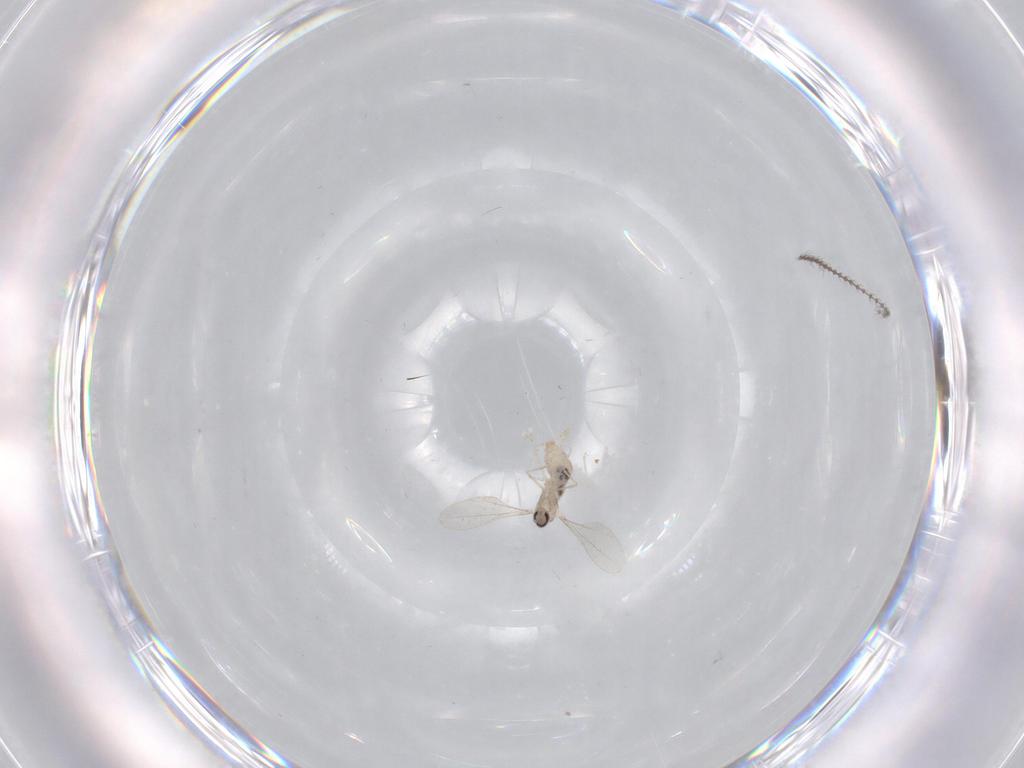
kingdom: Animalia
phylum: Arthropoda
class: Insecta
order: Diptera
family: Cecidomyiidae
